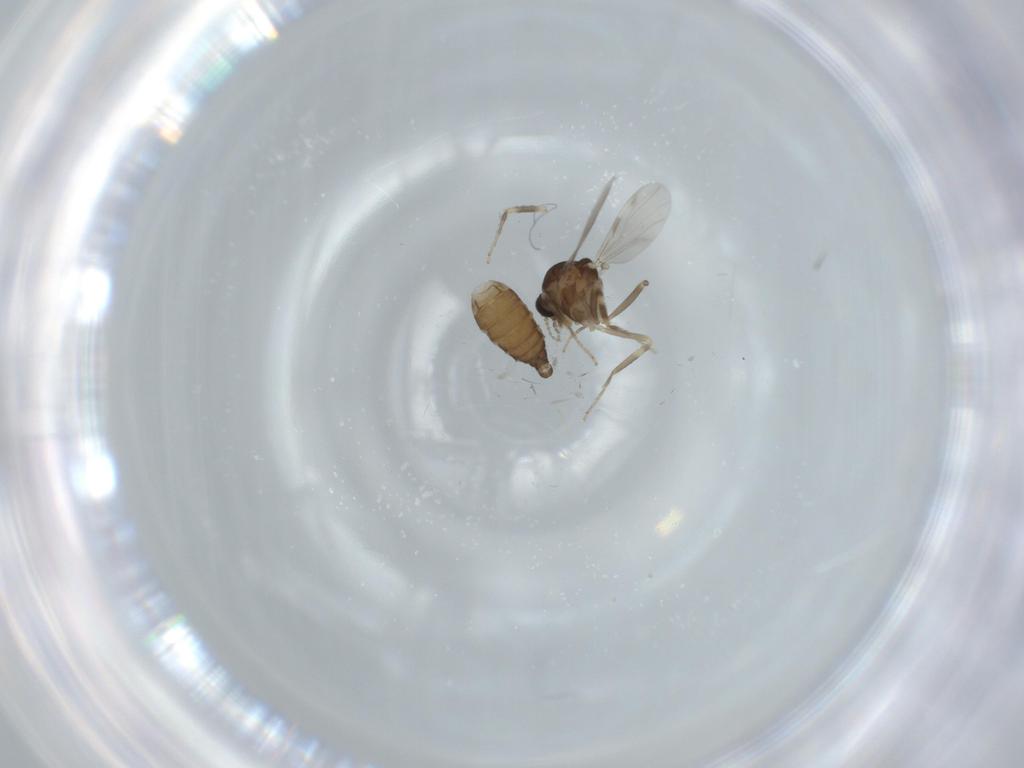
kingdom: Animalia
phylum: Arthropoda
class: Insecta
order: Diptera
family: Ceratopogonidae
